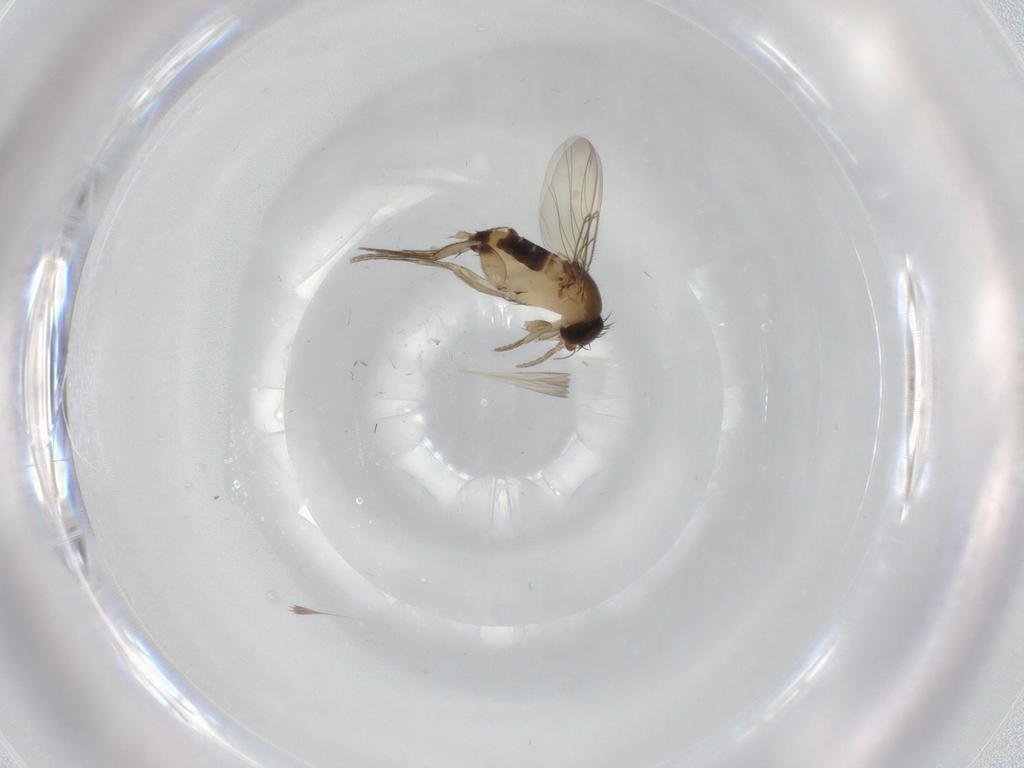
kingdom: Animalia
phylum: Arthropoda
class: Insecta
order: Diptera
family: Phoridae
